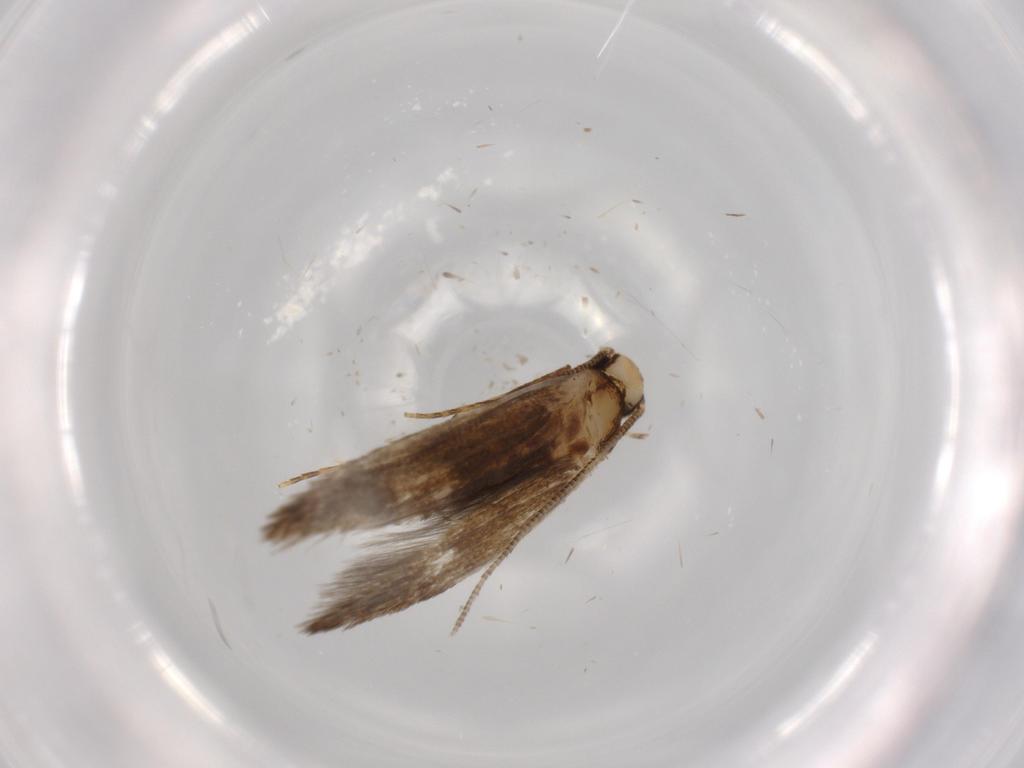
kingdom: Animalia
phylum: Arthropoda
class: Insecta
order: Lepidoptera
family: Tineidae
